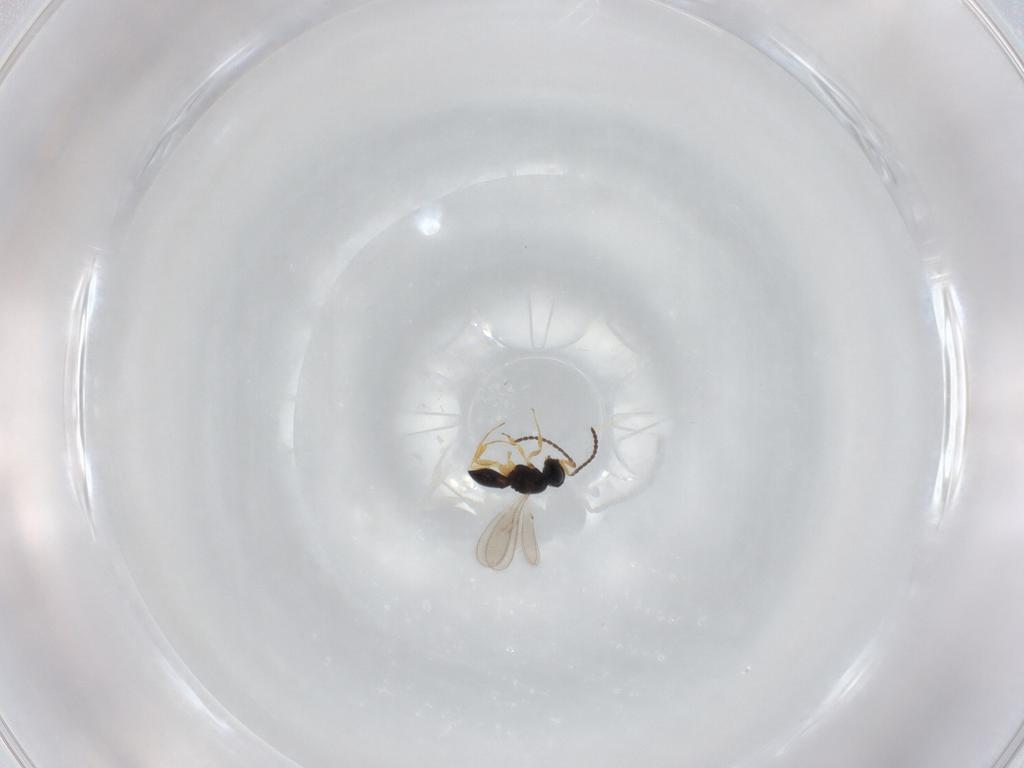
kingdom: Animalia
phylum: Arthropoda
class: Insecta
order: Hymenoptera
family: Scelionidae
